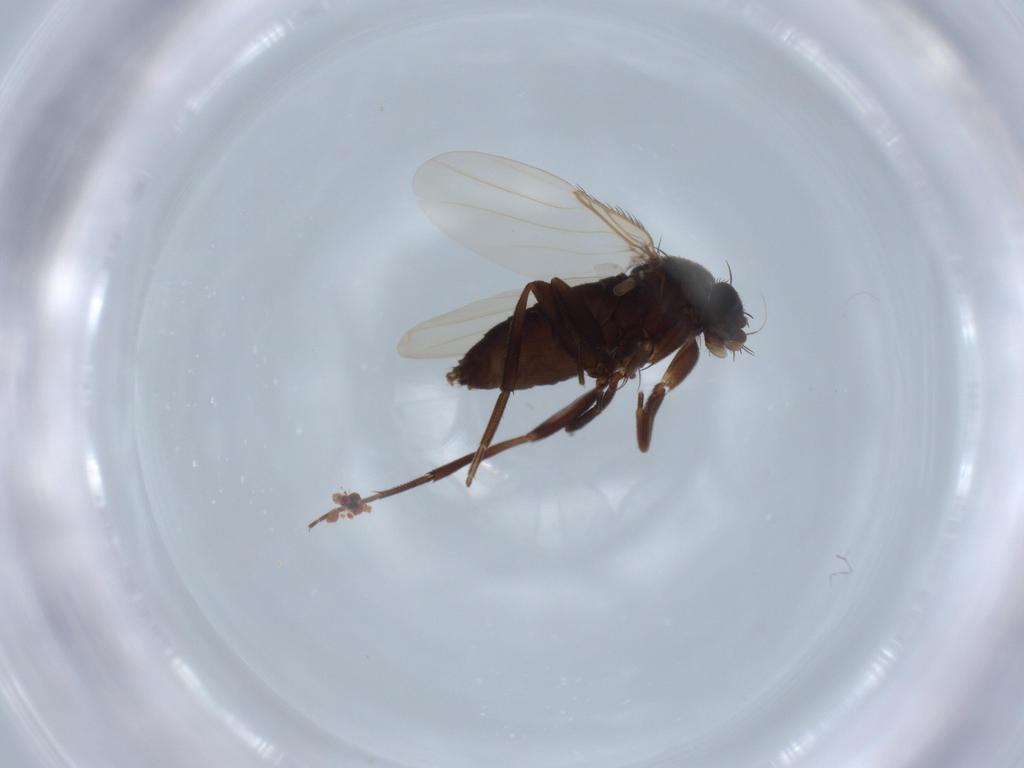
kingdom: Animalia
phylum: Arthropoda
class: Insecta
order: Diptera
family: Phoridae
